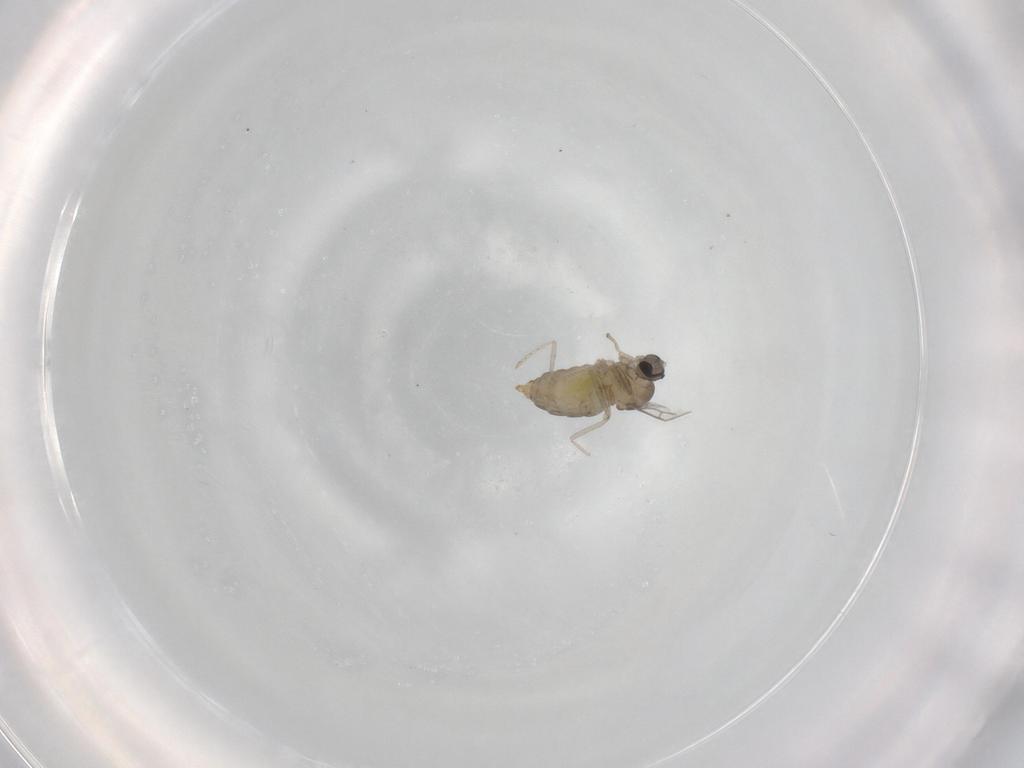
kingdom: Animalia
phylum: Arthropoda
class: Insecta
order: Diptera
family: Cecidomyiidae
